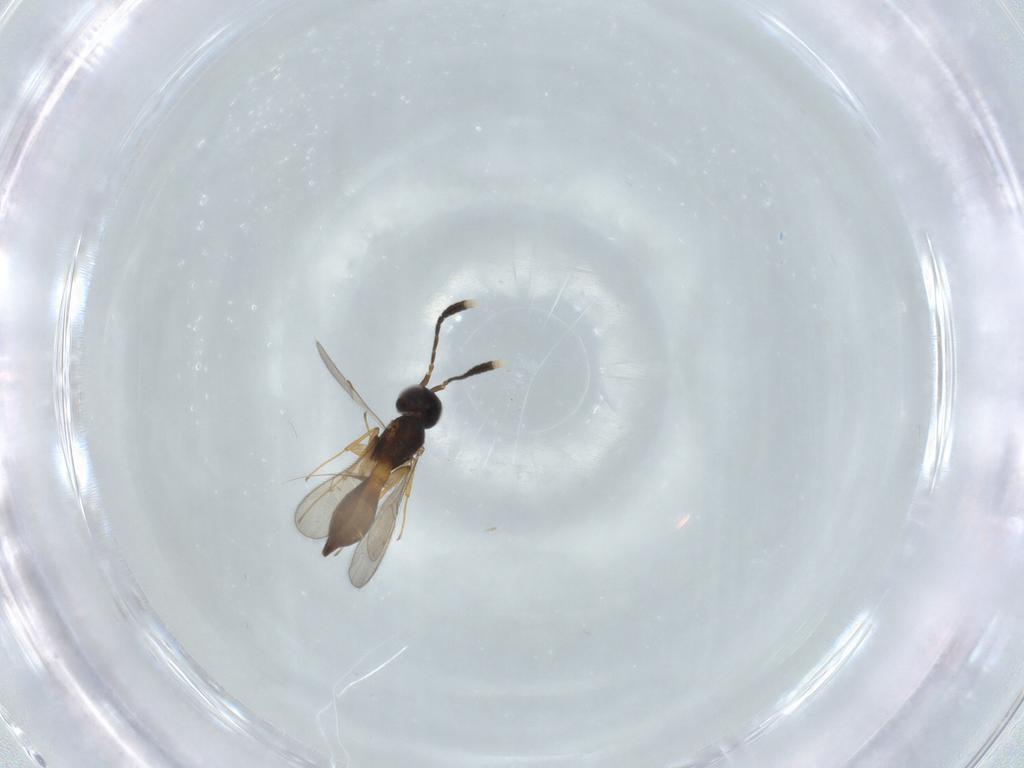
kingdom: Animalia
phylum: Arthropoda
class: Insecta
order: Hymenoptera
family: Scelionidae
